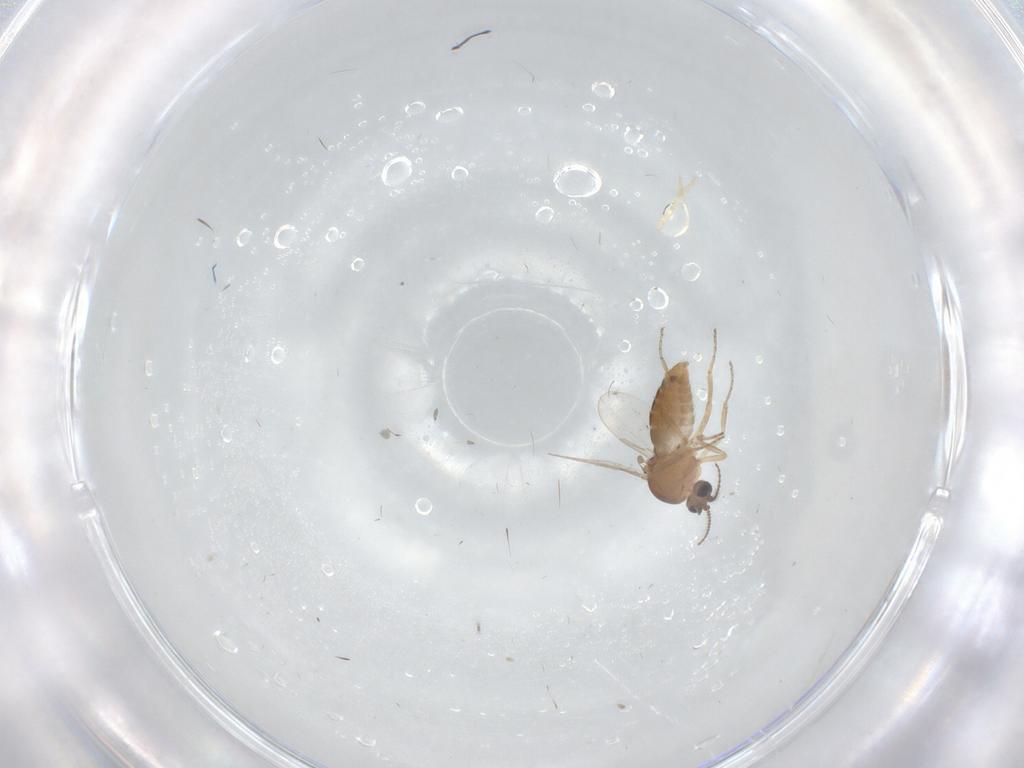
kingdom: Animalia
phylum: Arthropoda
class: Insecta
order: Diptera
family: Ceratopogonidae
